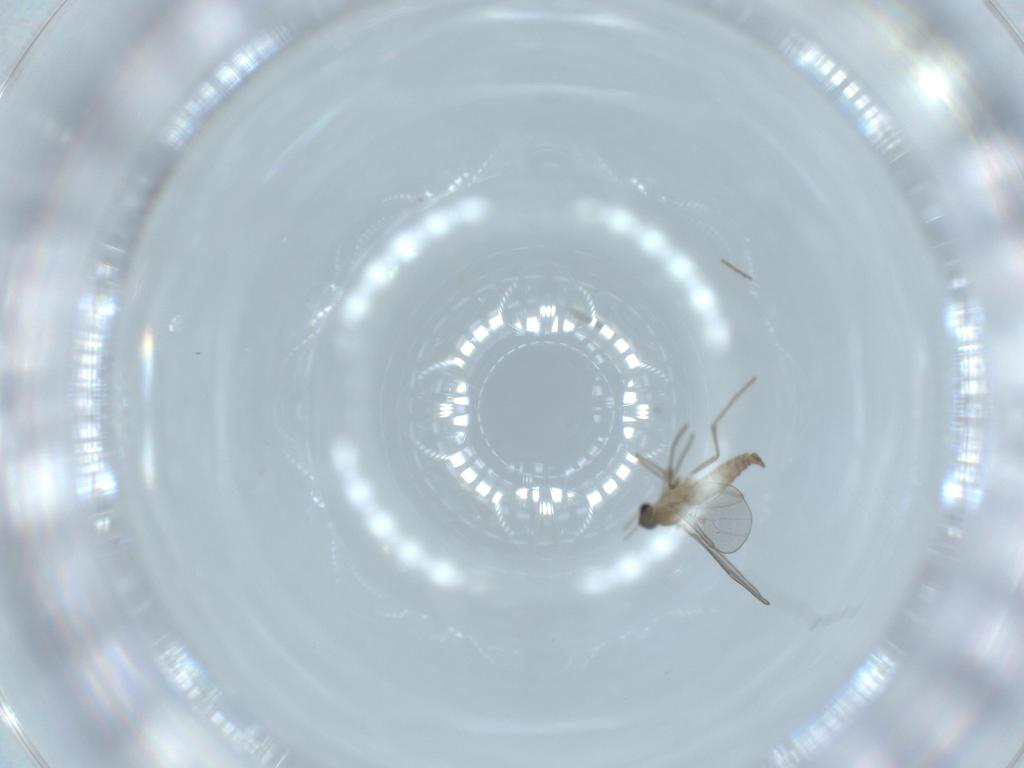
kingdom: Animalia
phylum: Arthropoda
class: Insecta
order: Diptera
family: Cecidomyiidae
